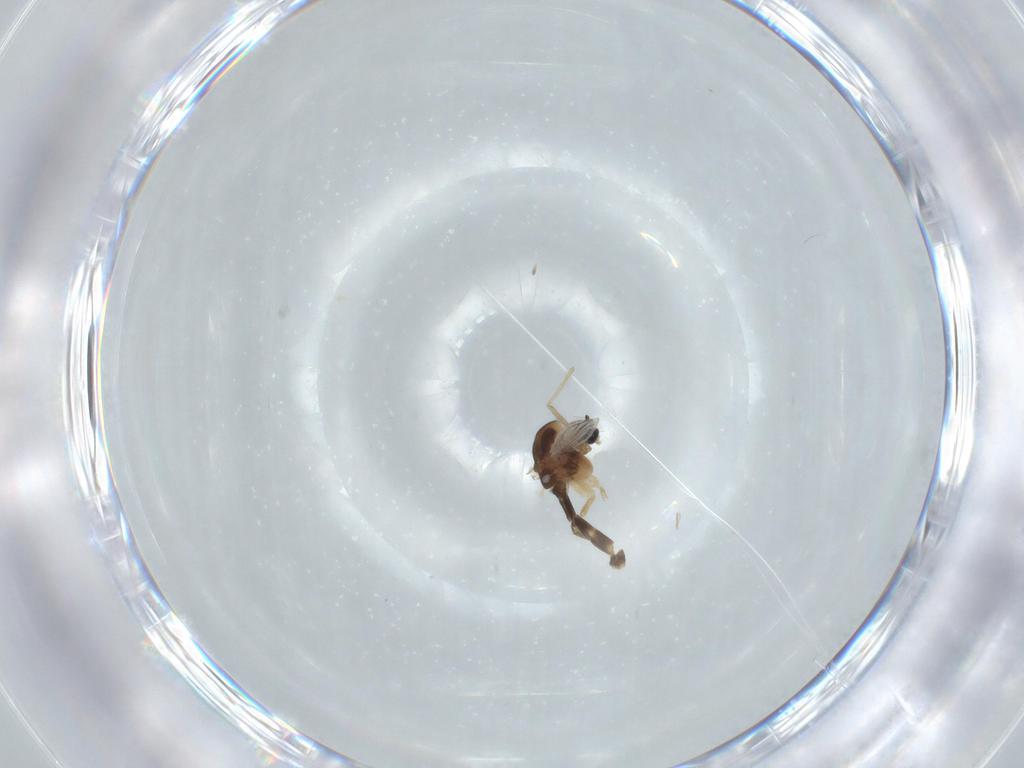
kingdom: Animalia
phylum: Arthropoda
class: Insecta
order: Diptera
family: Chironomidae
